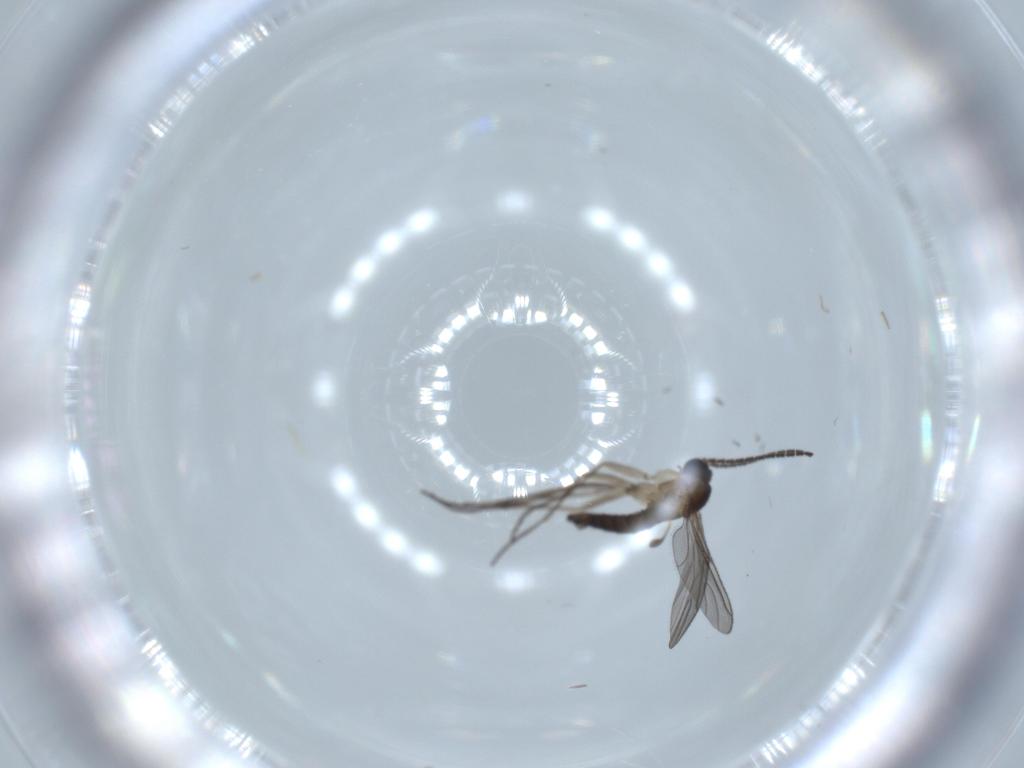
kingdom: Animalia
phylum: Arthropoda
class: Insecta
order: Diptera
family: Sciaridae
